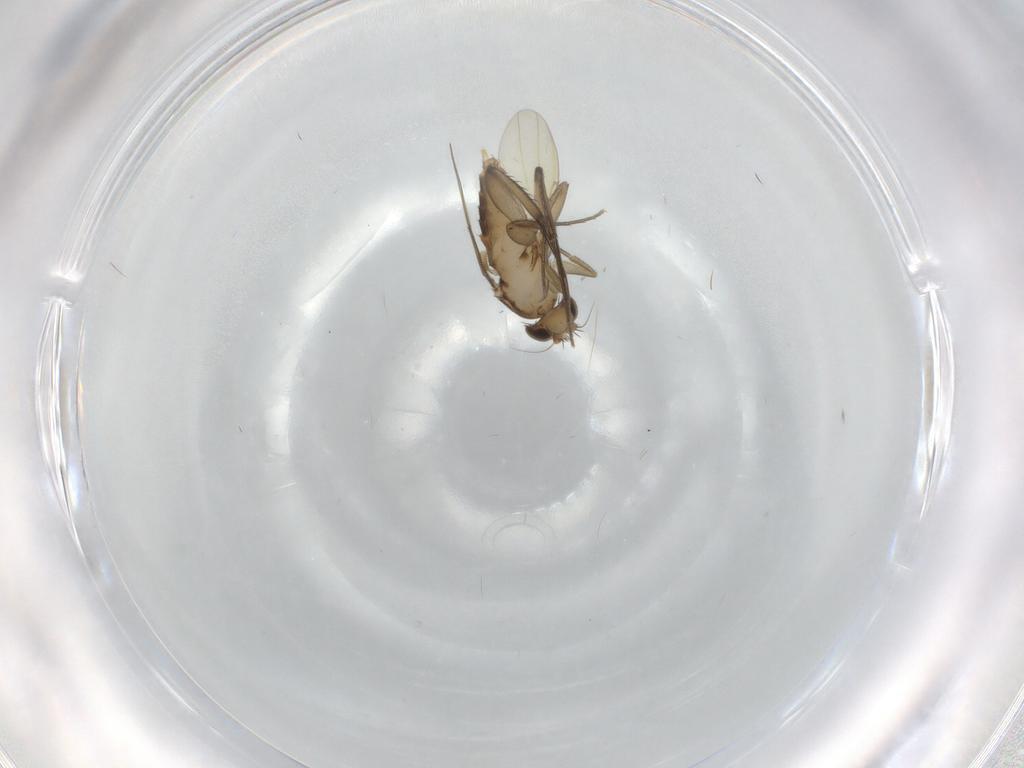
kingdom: Animalia
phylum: Arthropoda
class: Insecta
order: Diptera
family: Phoridae
